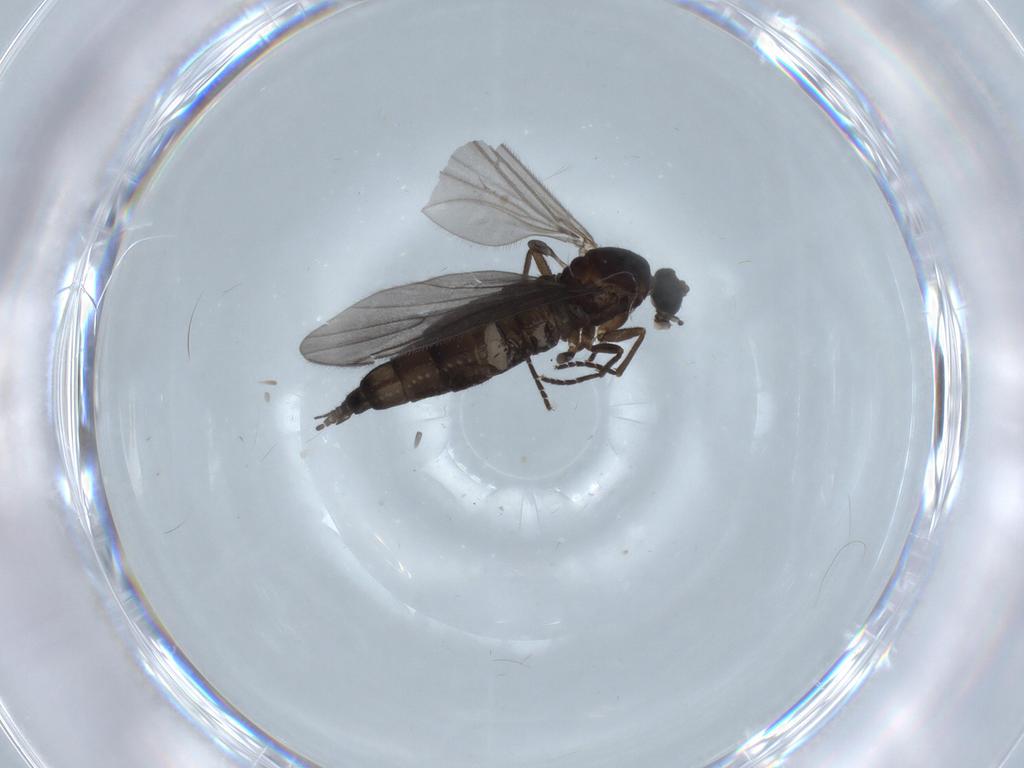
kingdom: Animalia
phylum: Arthropoda
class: Insecta
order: Diptera
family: Sciaridae
